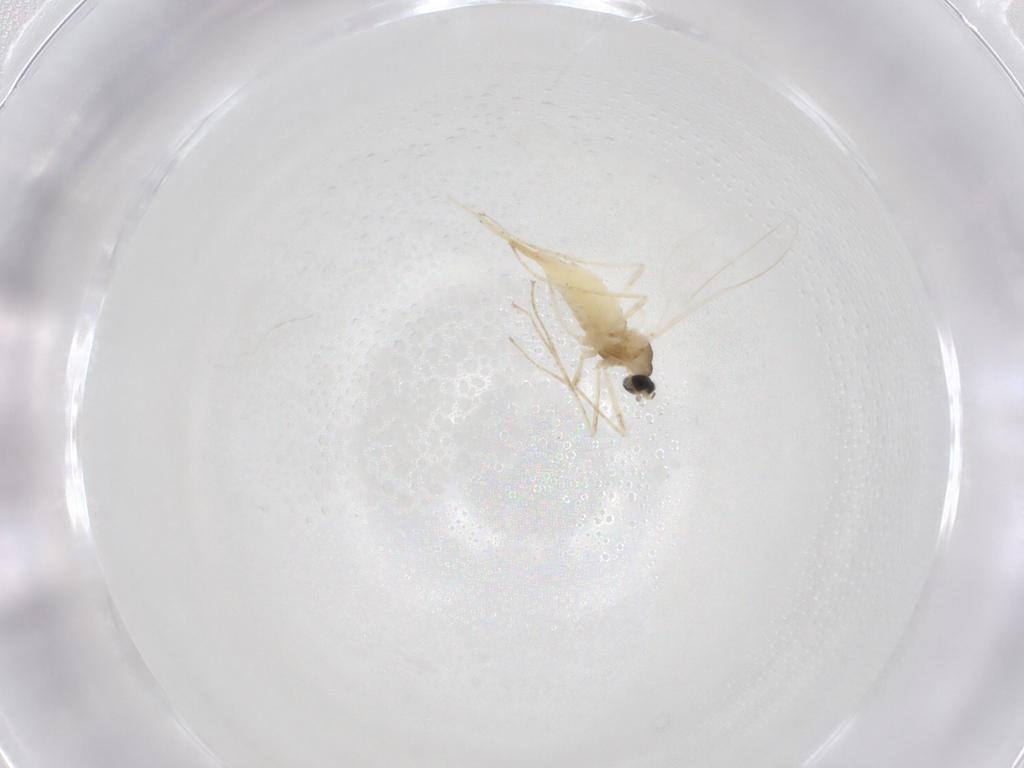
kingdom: Animalia
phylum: Arthropoda
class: Insecta
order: Diptera
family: Cecidomyiidae
